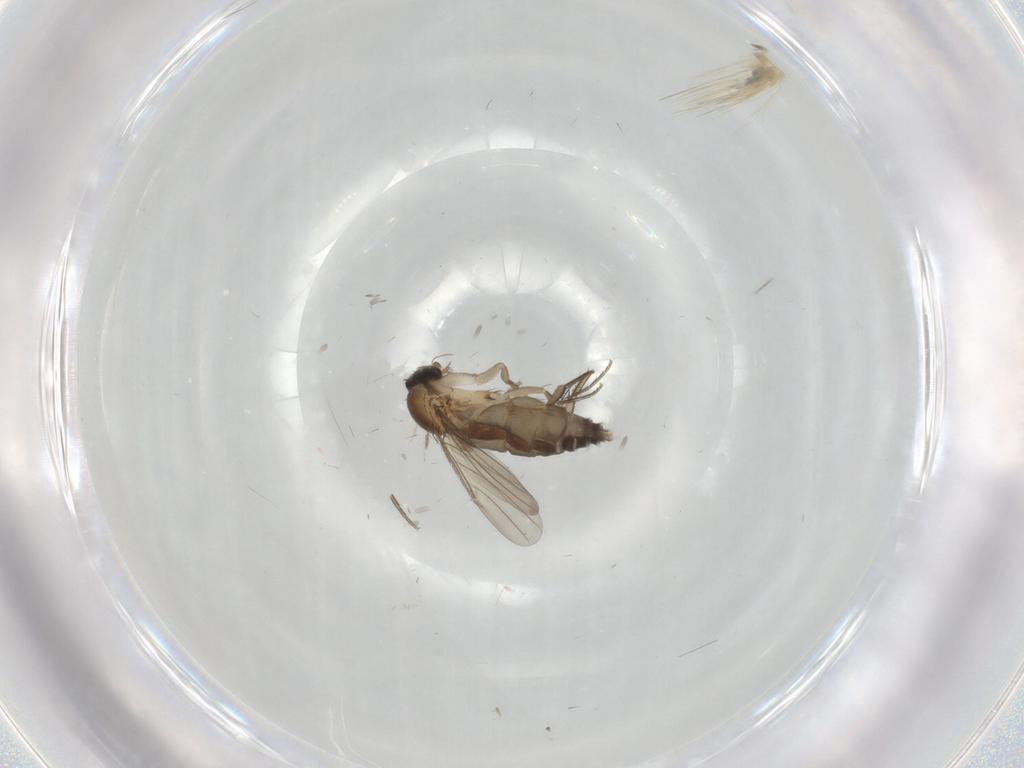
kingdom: Animalia
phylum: Arthropoda
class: Insecta
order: Diptera
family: Phoridae
